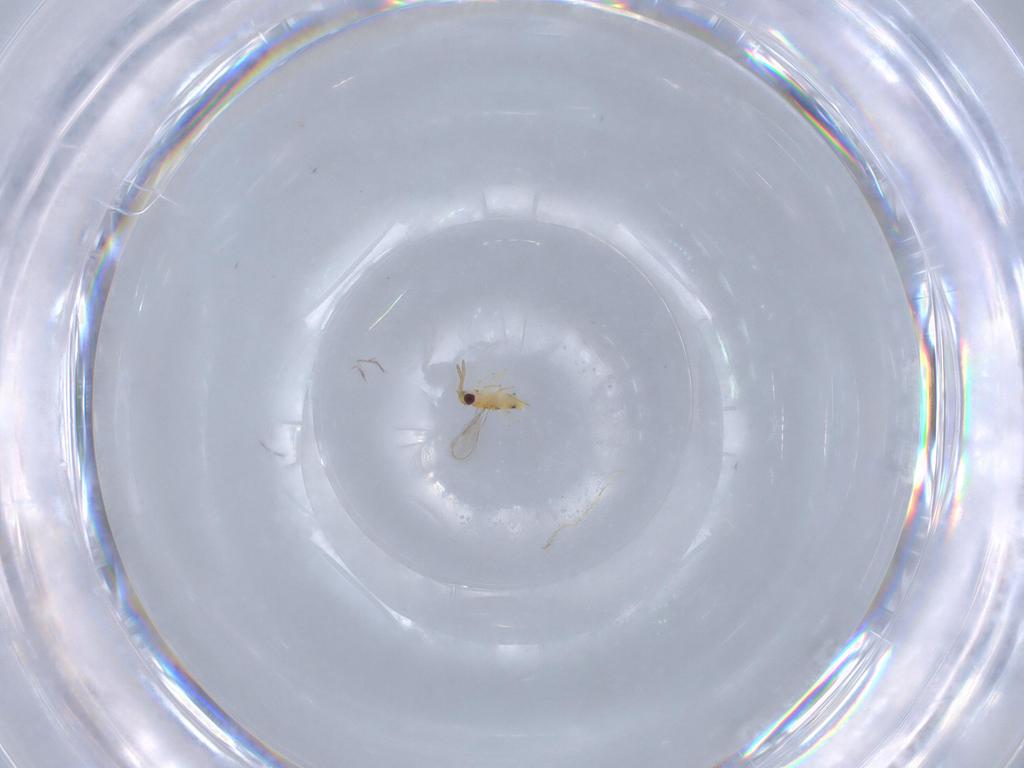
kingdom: Animalia
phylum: Arthropoda
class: Insecta
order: Hymenoptera
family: Aphelinidae
